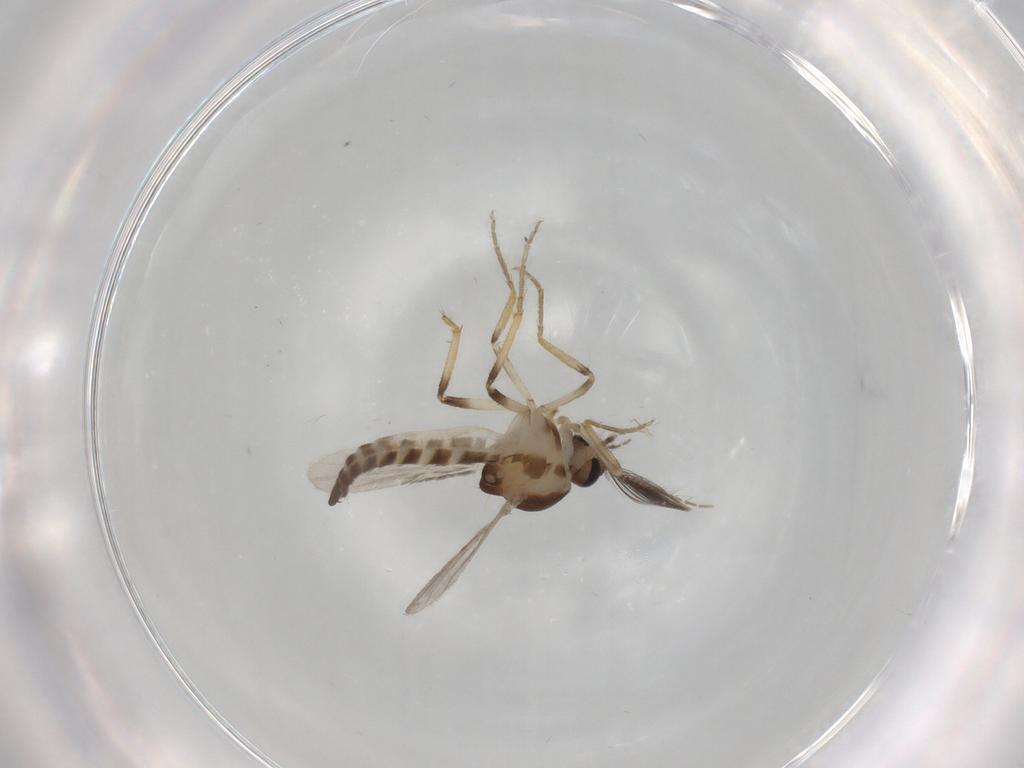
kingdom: Animalia
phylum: Arthropoda
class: Insecta
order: Diptera
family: Ceratopogonidae
